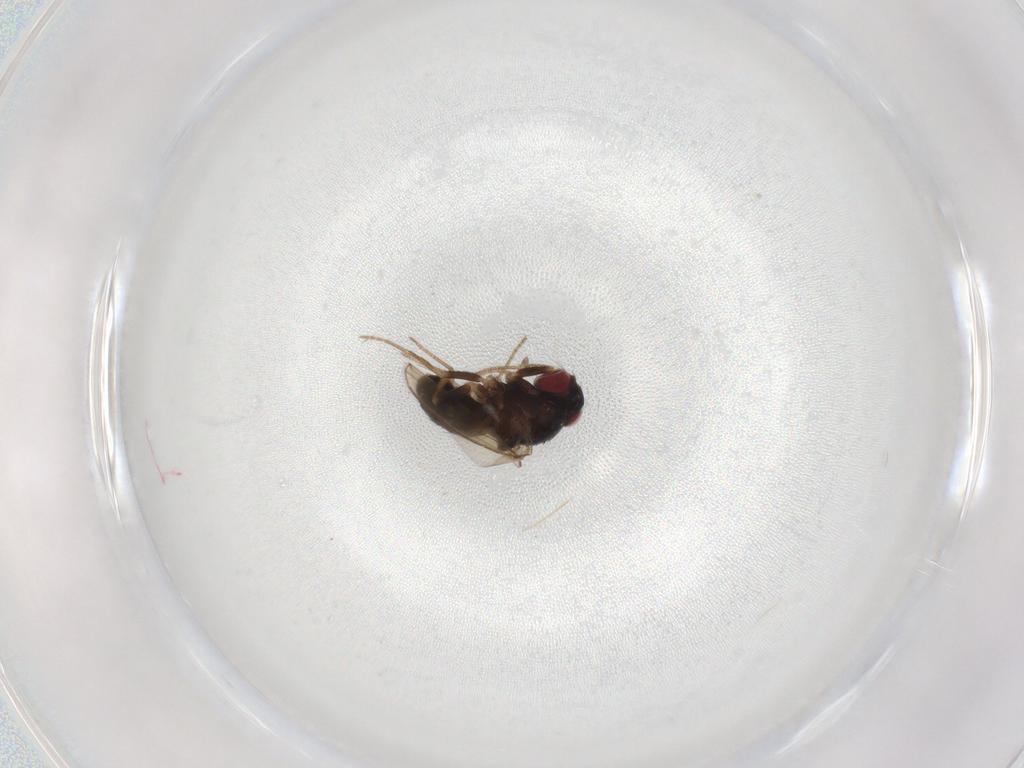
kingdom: Animalia
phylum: Arthropoda
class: Insecta
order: Diptera
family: Drosophilidae
